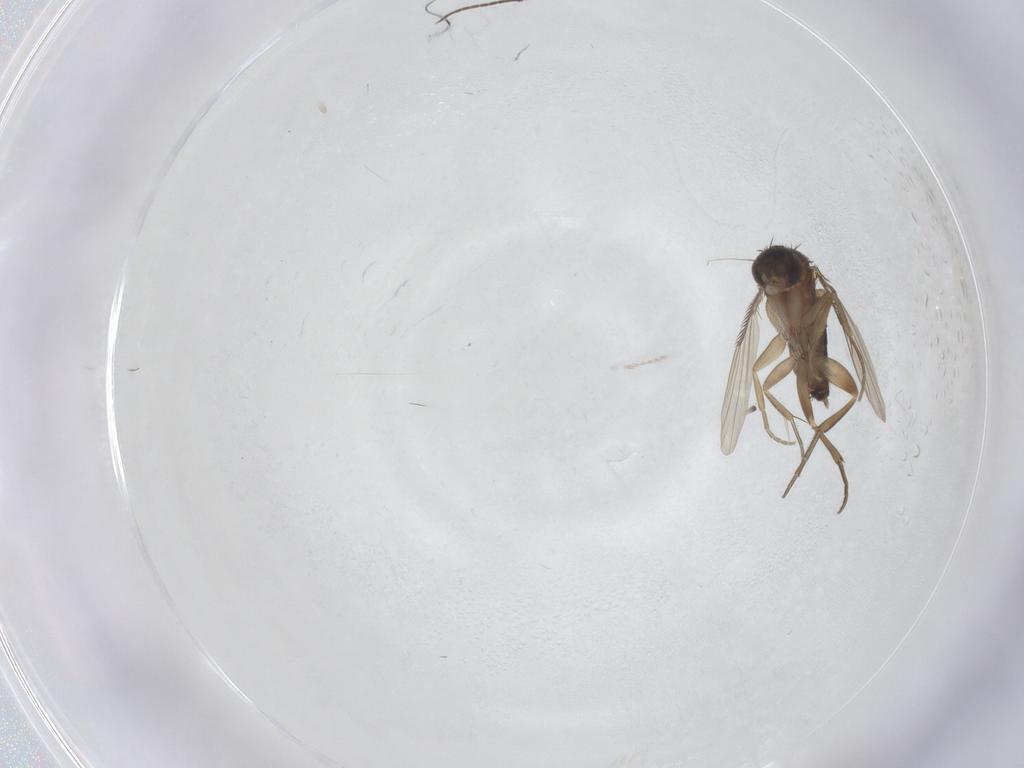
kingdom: Animalia
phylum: Arthropoda
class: Insecta
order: Diptera
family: Phoridae
